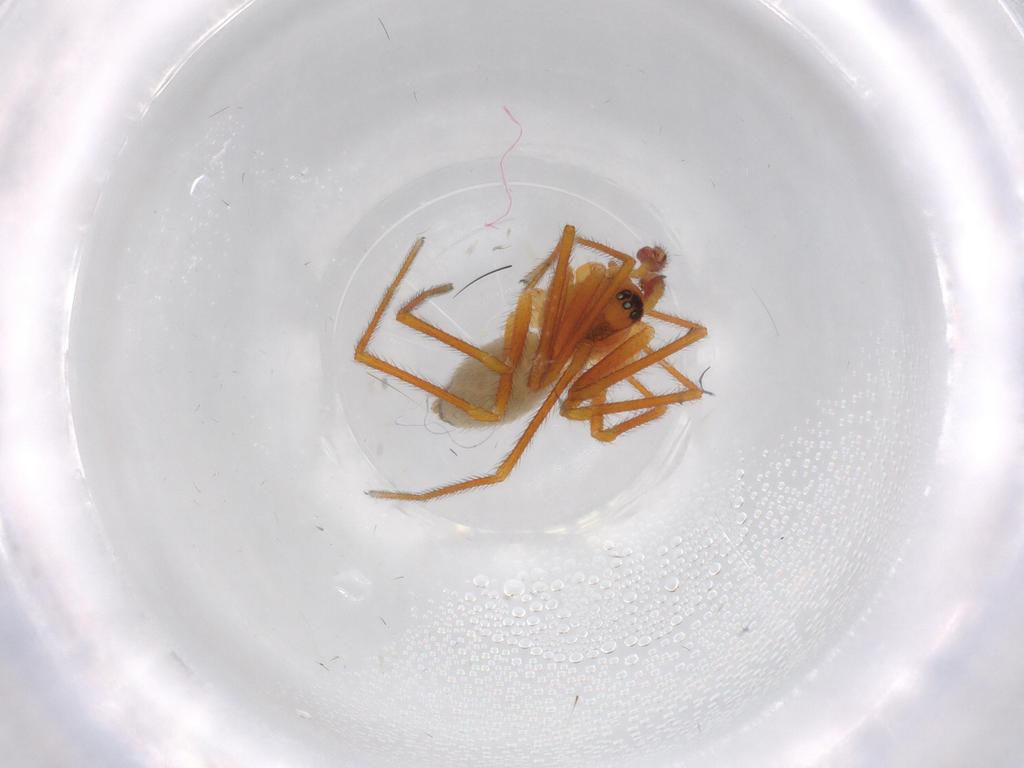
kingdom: Animalia
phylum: Arthropoda
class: Arachnida
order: Araneae
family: Linyphiidae
